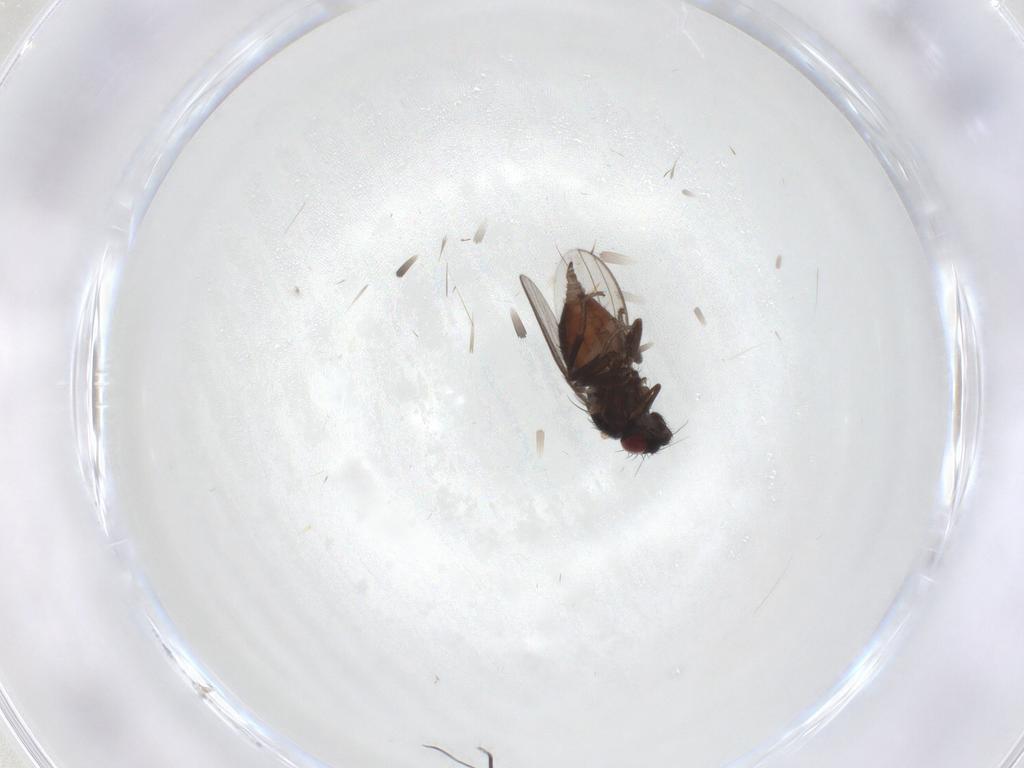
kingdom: Animalia
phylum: Arthropoda
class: Insecta
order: Diptera
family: Milichiidae
